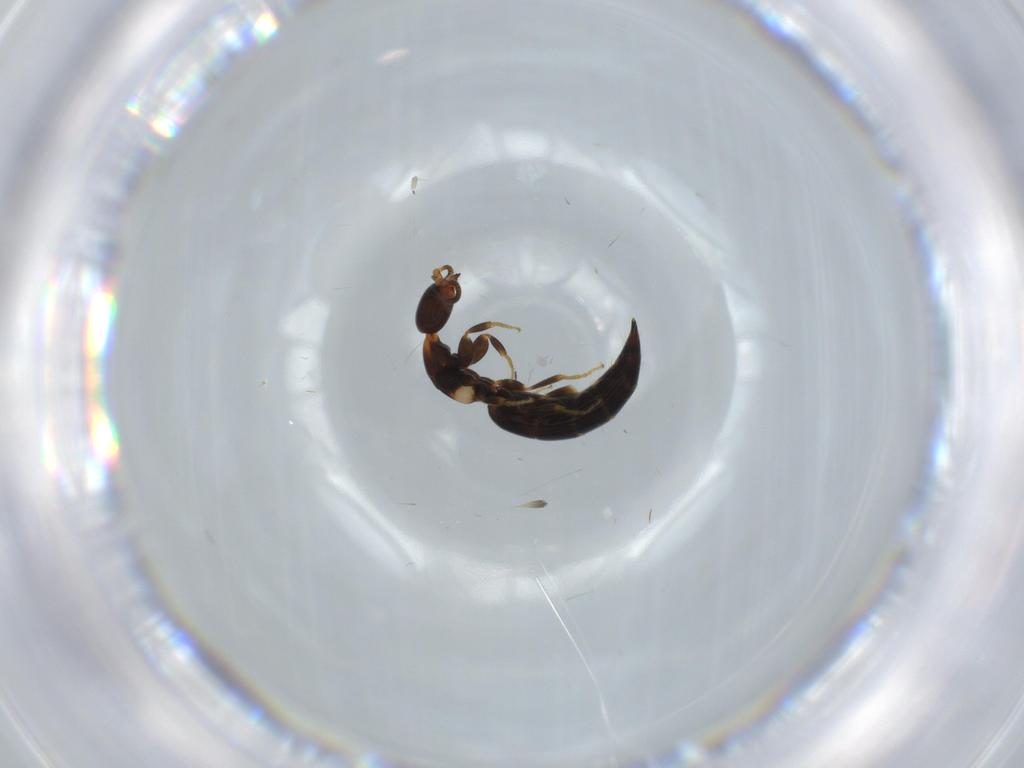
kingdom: Animalia
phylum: Arthropoda
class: Insecta
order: Hymenoptera
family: Bethylidae
